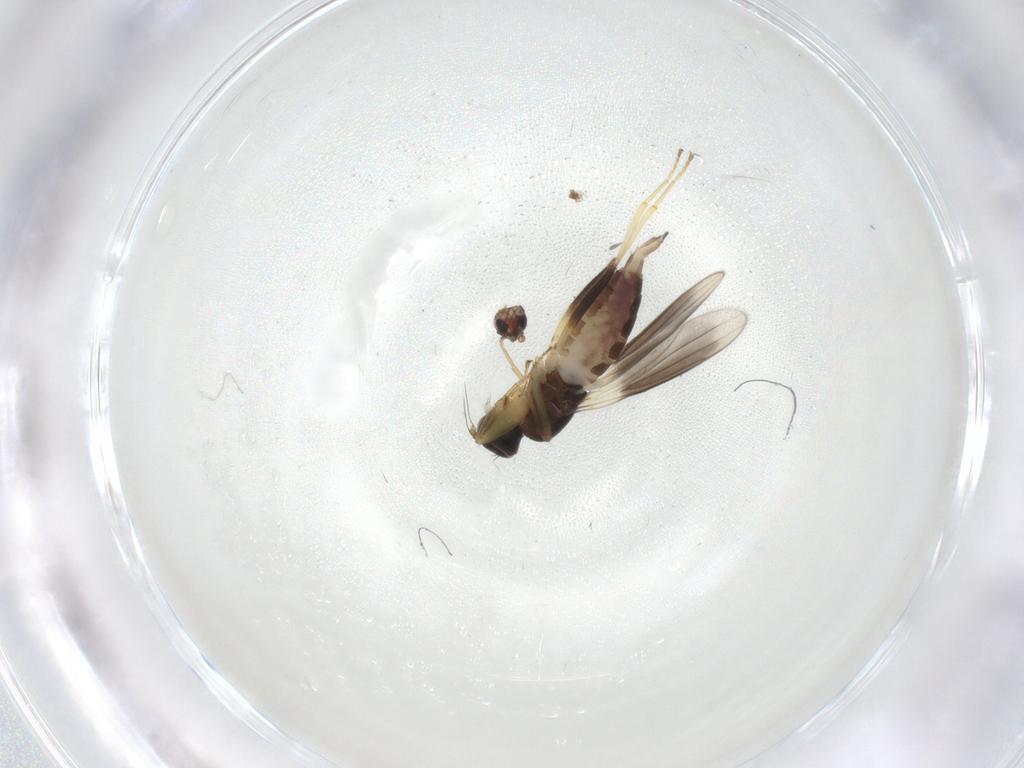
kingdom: Animalia
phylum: Arthropoda
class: Insecta
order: Diptera
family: Hybotidae
